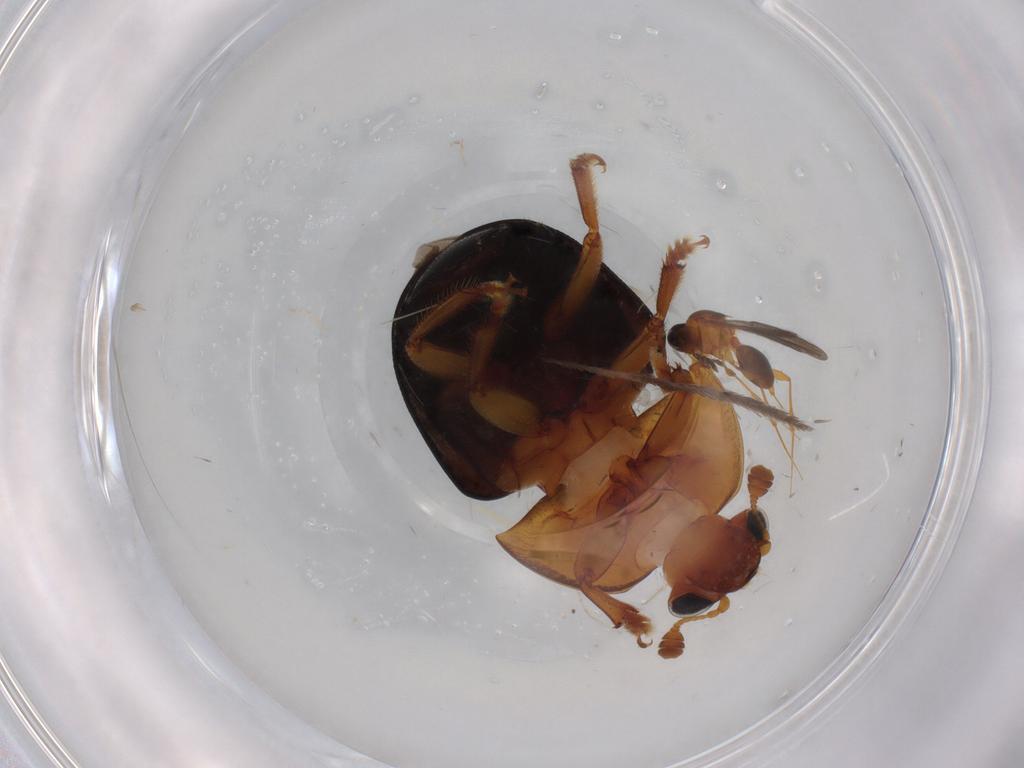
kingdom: Animalia
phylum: Arthropoda
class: Insecta
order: Coleoptera
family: Nitidulidae
